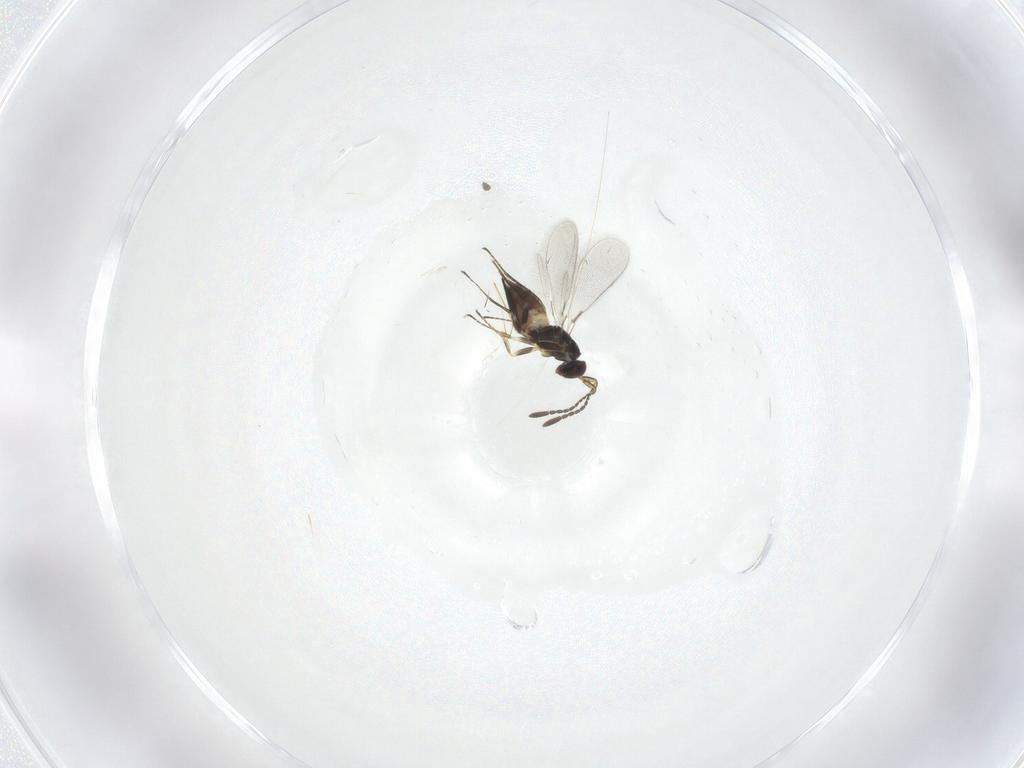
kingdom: Animalia
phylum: Arthropoda
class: Insecta
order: Hymenoptera
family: Mymaridae
